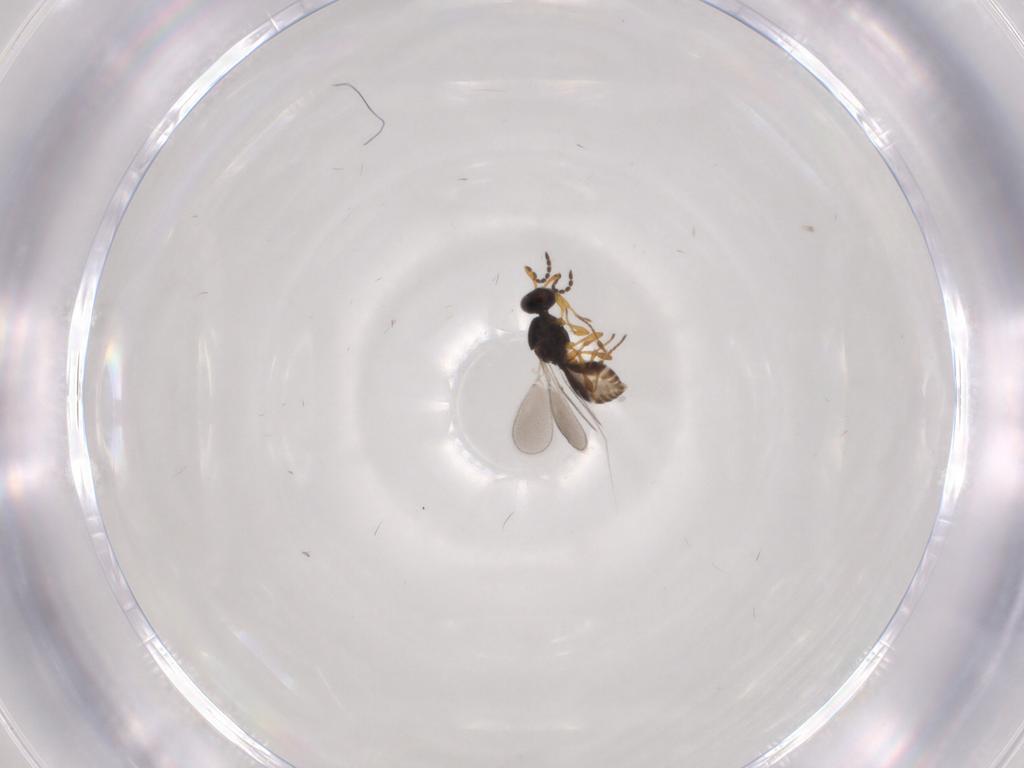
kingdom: Animalia
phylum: Arthropoda
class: Insecta
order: Hymenoptera
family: Platygastridae
